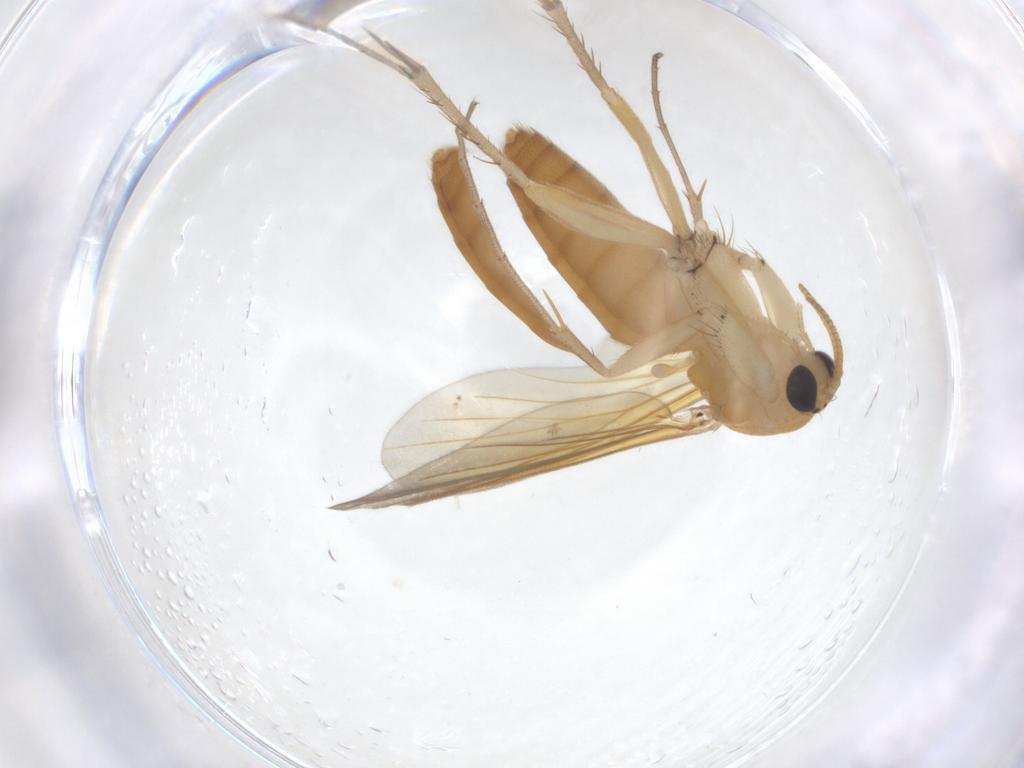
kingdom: Animalia
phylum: Arthropoda
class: Insecta
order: Diptera
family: Mycetophilidae
